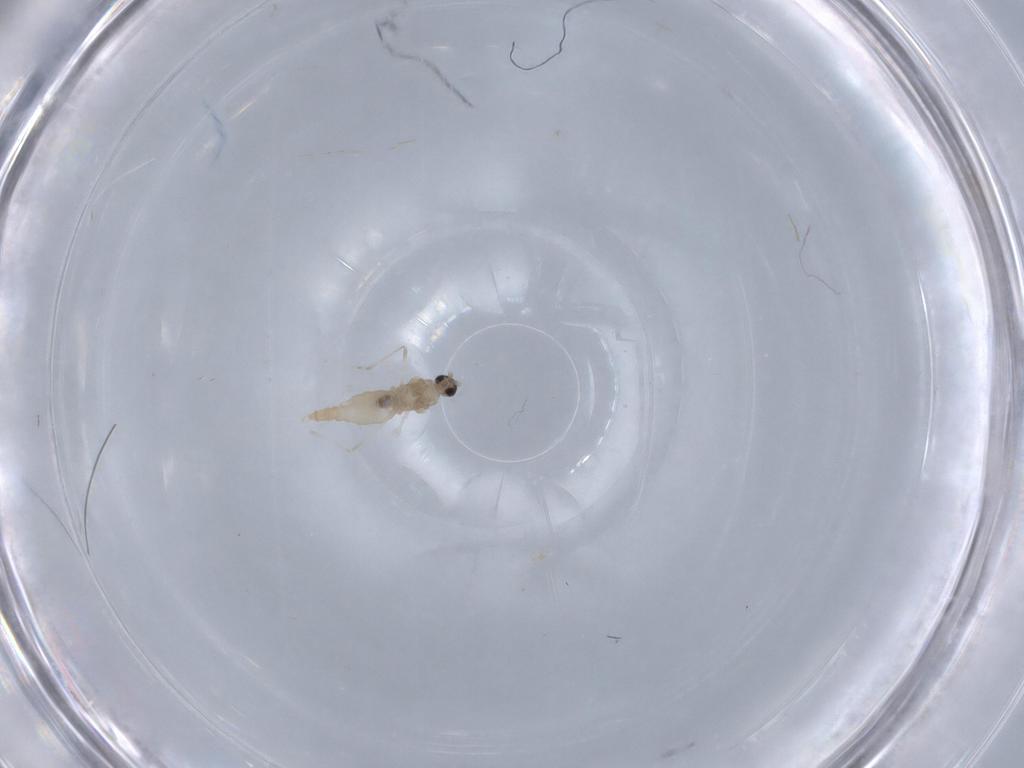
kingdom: Animalia
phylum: Arthropoda
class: Insecta
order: Diptera
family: Cecidomyiidae
